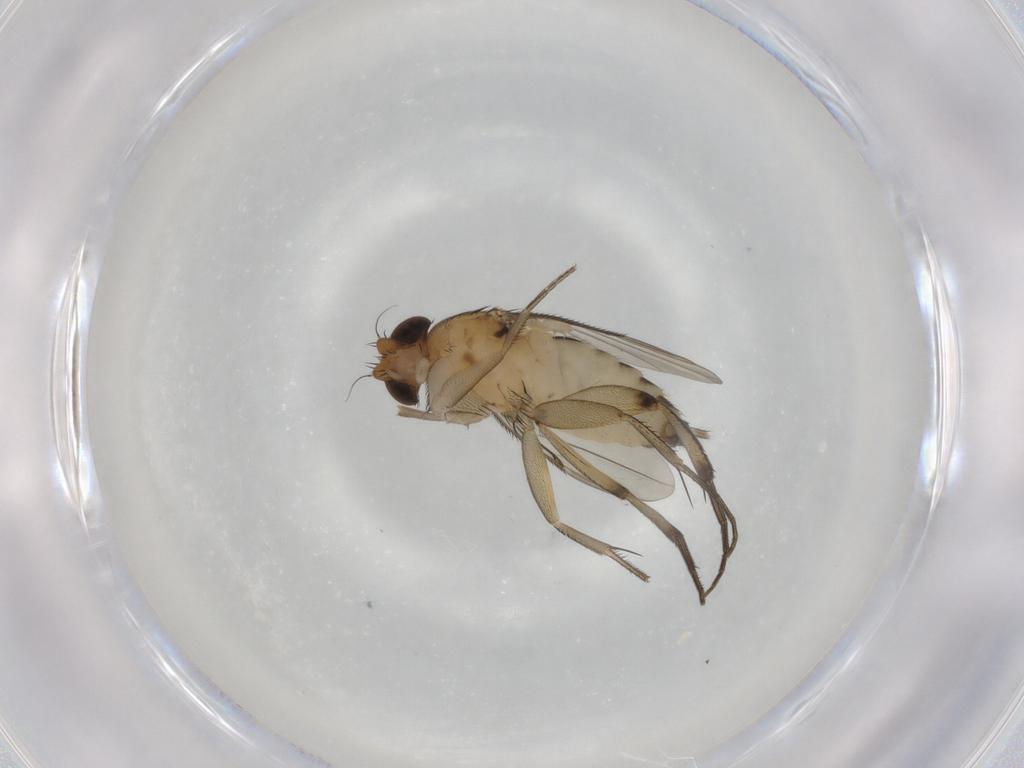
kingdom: Animalia
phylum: Arthropoda
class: Insecta
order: Diptera
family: Phoridae
